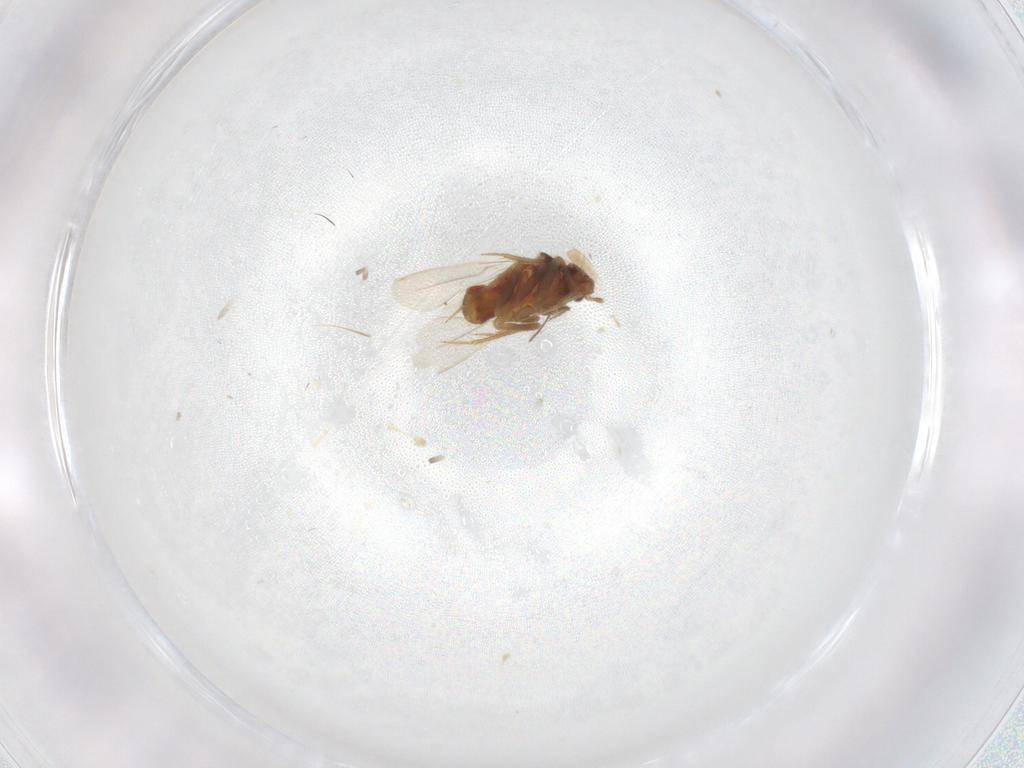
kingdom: Animalia
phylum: Arthropoda
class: Insecta
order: Hemiptera
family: Ceratocombidae
